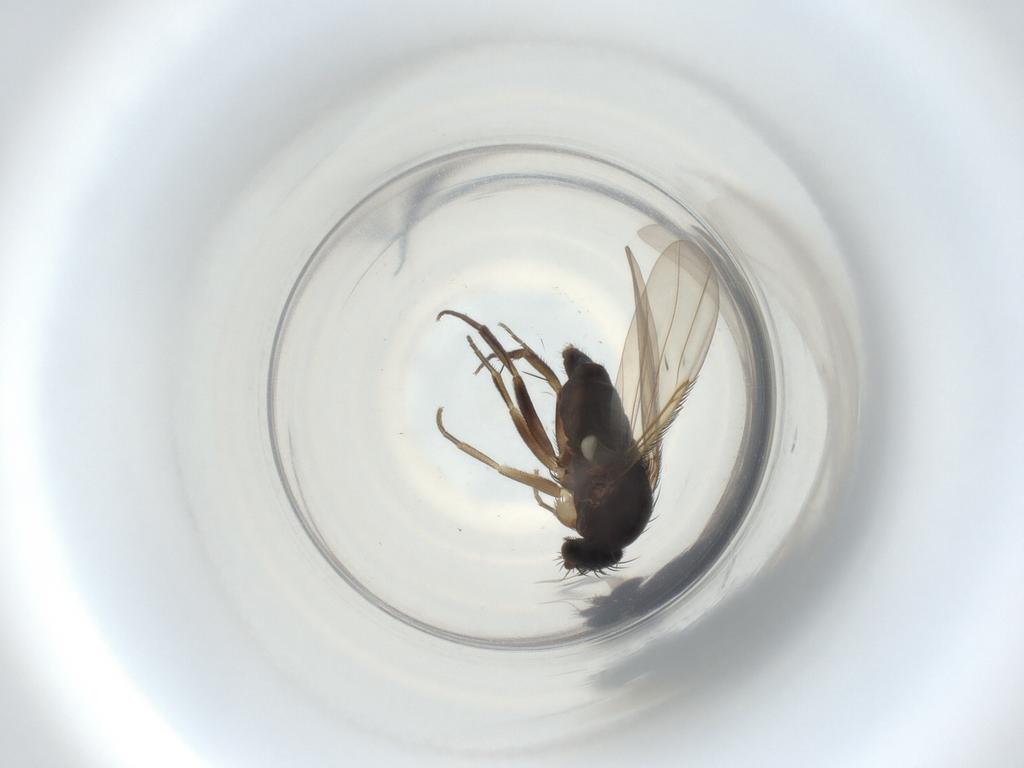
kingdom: Animalia
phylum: Arthropoda
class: Insecta
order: Diptera
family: Phoridae
